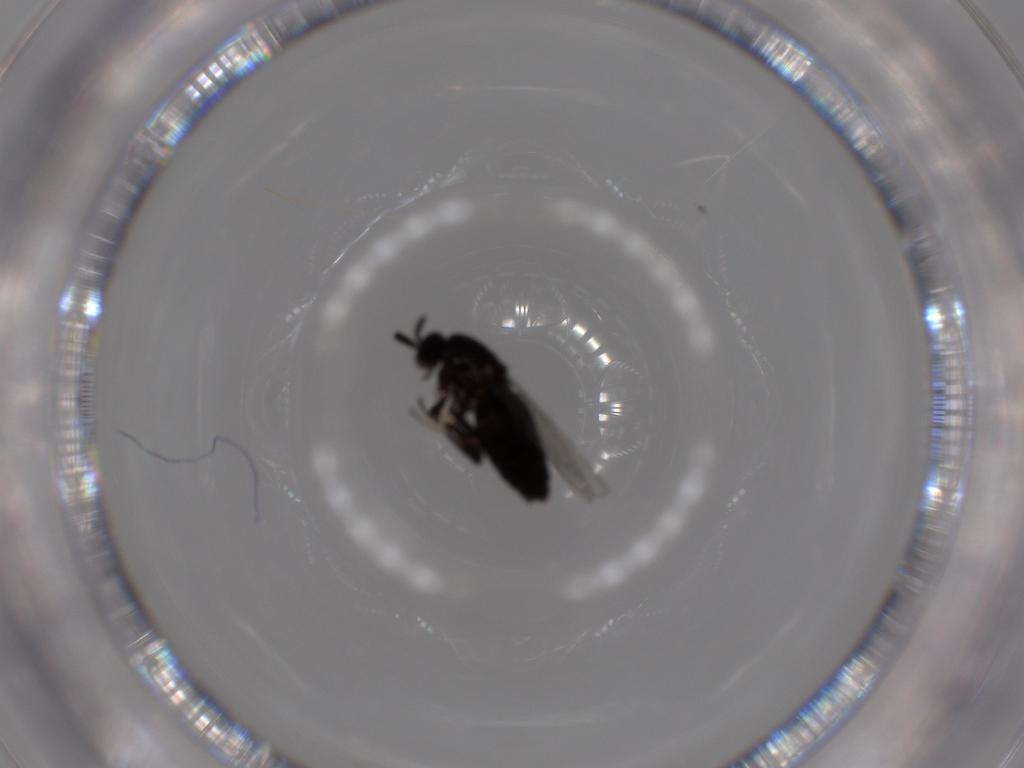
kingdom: Animalia
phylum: Arthropoda
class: Insecta
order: Diptera
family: Scatopsidae
